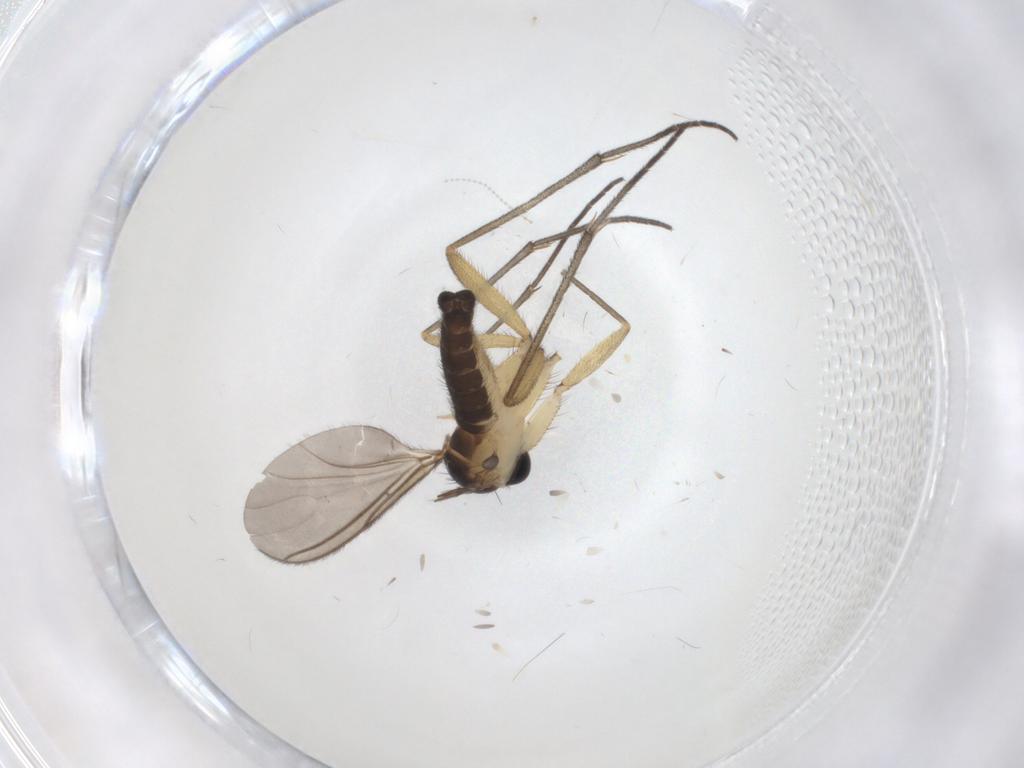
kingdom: Animalia
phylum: Arthropoda
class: Insecta
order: Diptera
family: Sciaridae
